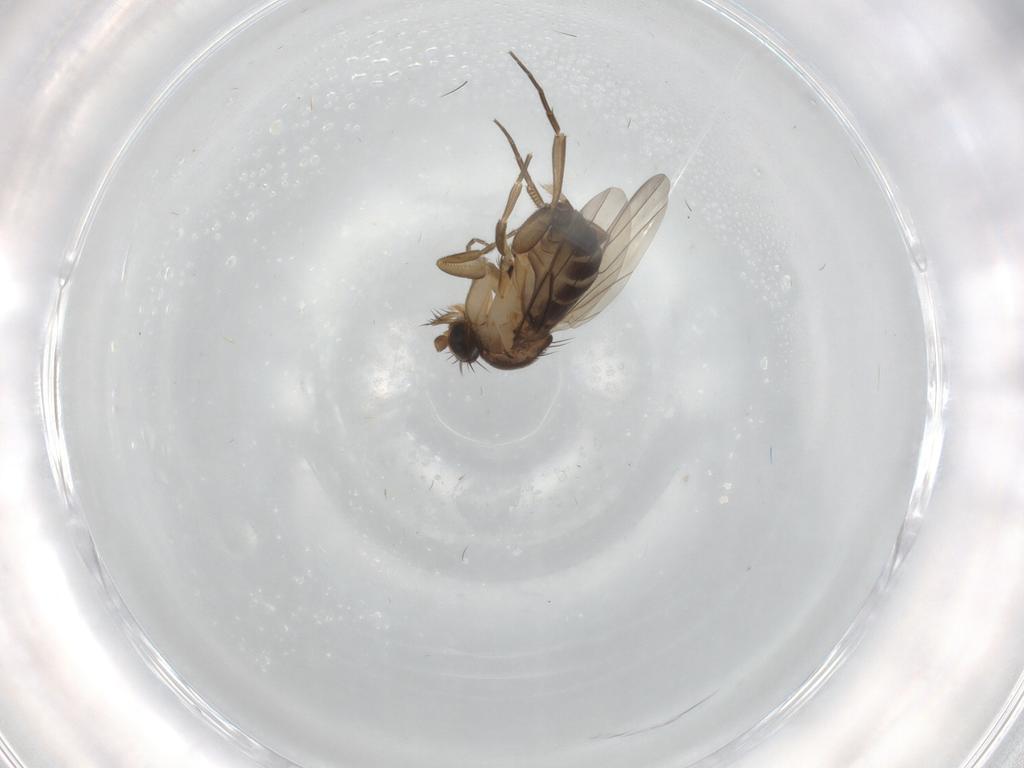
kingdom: Animalia
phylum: Arthropoda
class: Insecta
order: Diptera
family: Phoridae
